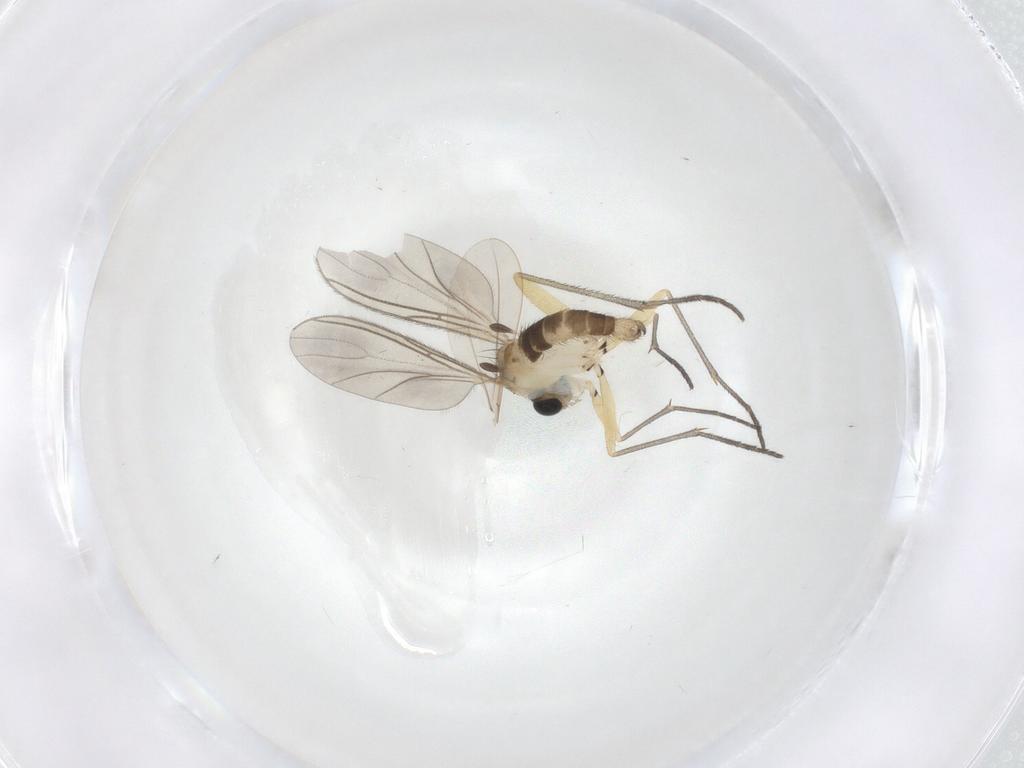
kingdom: Animalia
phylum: Arthropoda
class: Insecta
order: Diptera
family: Sciaridae
